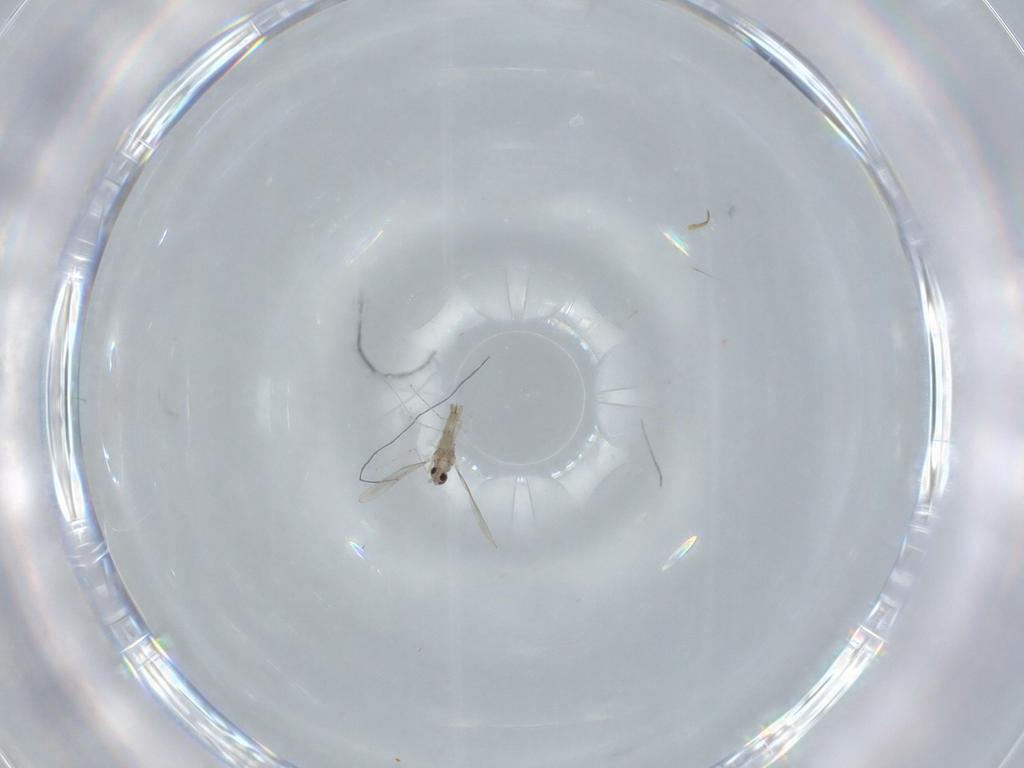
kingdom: Animalia
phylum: Arthropoda
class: Insecta
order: Diptera
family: Cecidomyiidae
